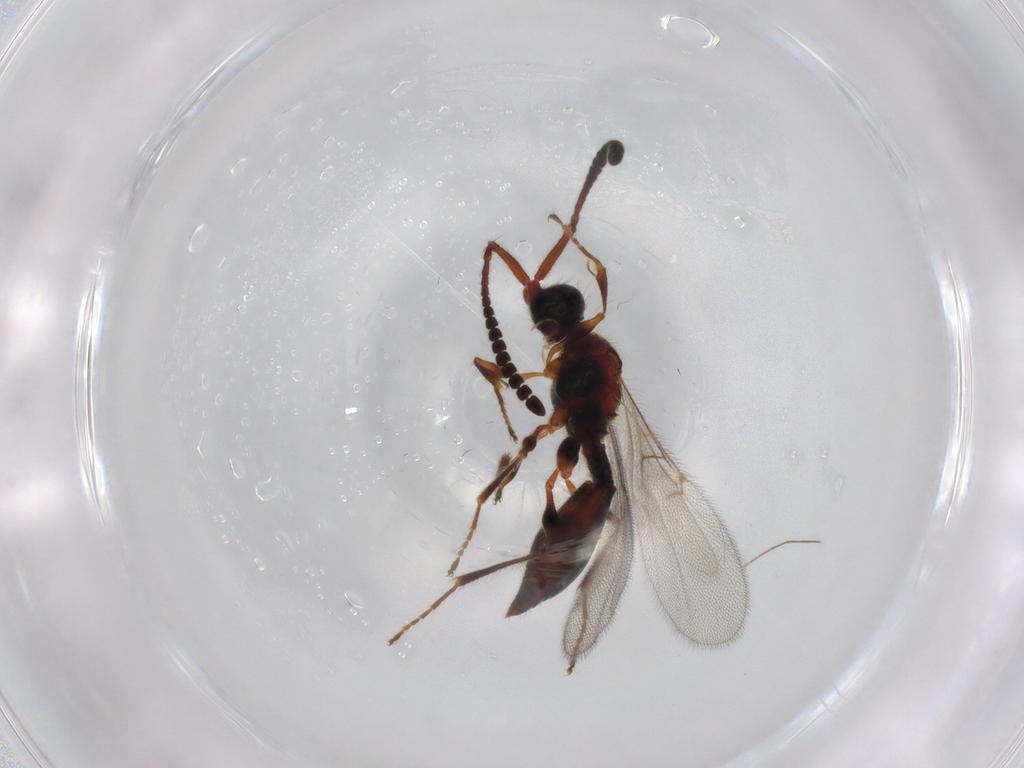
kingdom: Animalia
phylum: Arthropoda
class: Insecta
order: Hymenoptera
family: Diapriidae
